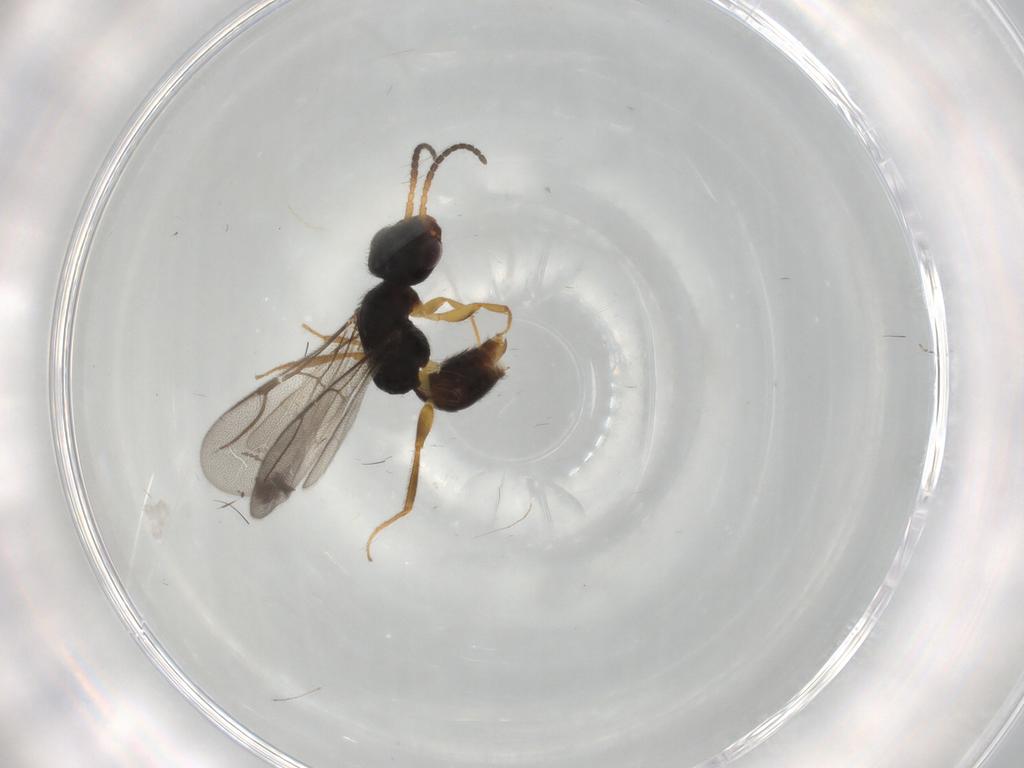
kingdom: Animalia
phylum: Arthropoda
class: Insecta
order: Hymenoptera
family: Bethylidae
